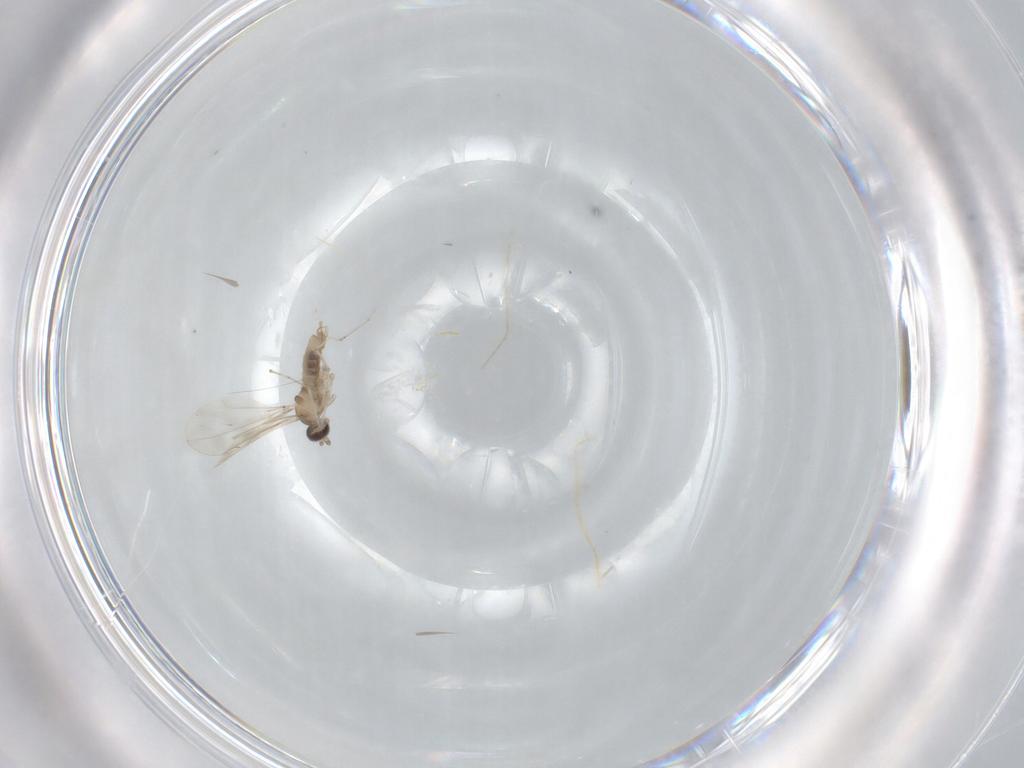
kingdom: Animalia
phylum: Arthropoda
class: Insecta
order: Diptera
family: Cecidomyiidae
